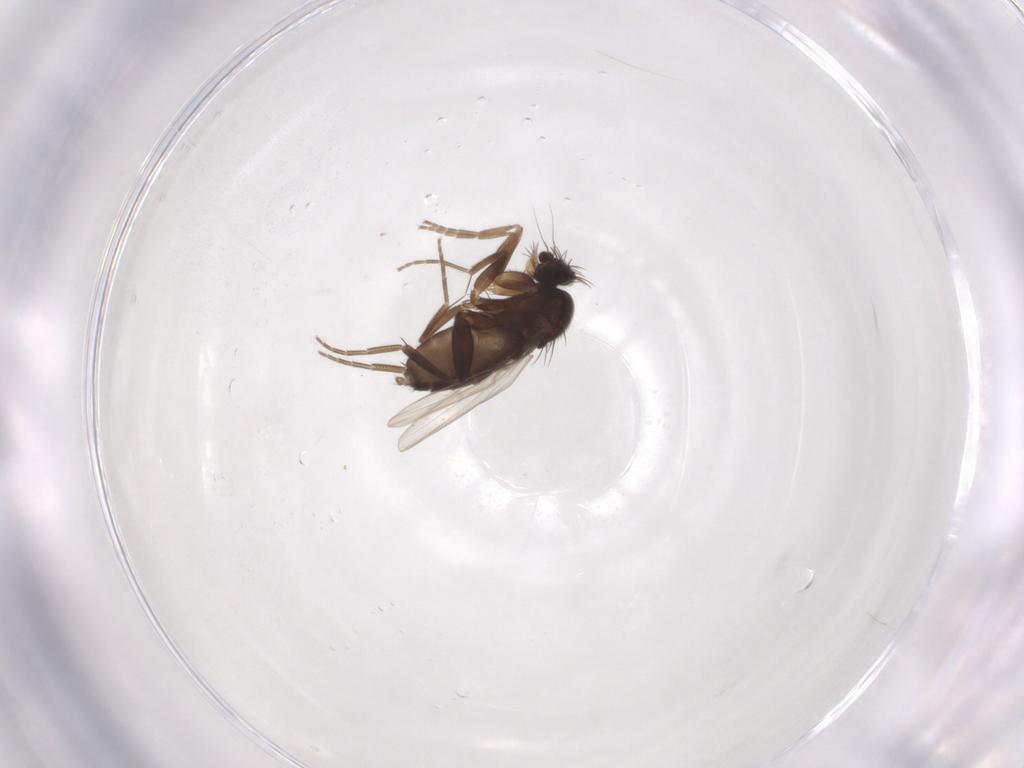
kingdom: Animalia
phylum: Arthropoda
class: Insecta
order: Diptera
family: Phoridae
